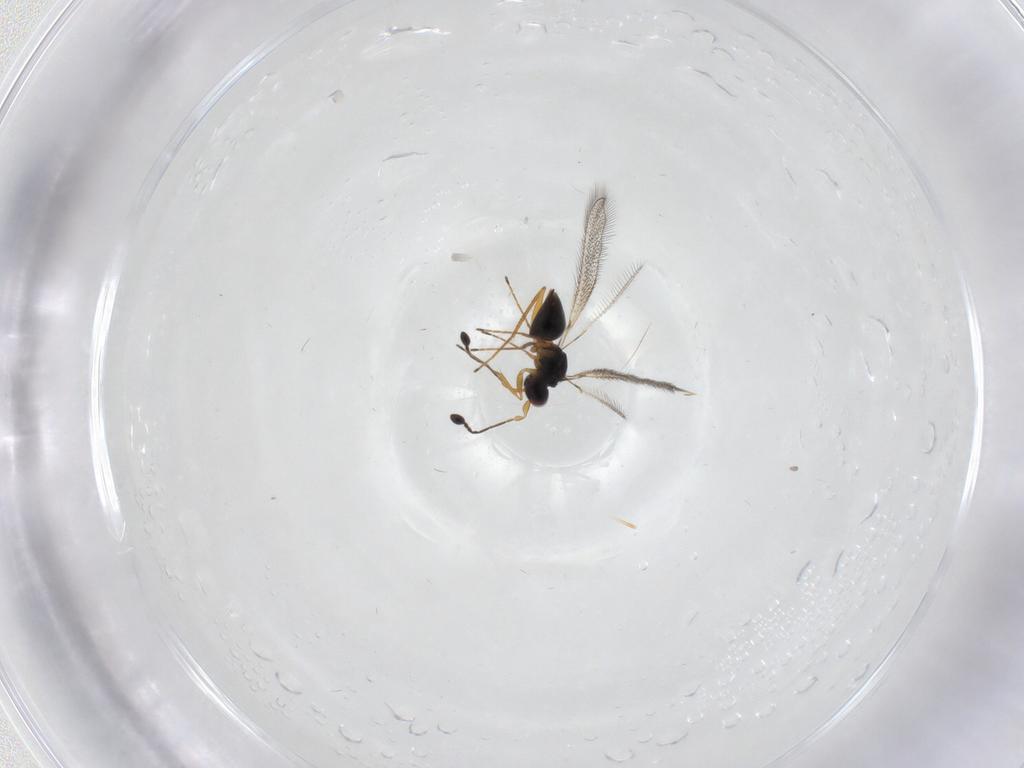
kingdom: Animalia
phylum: Arthropoda
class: Insecta
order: Hymenoptera
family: Mymaridae
